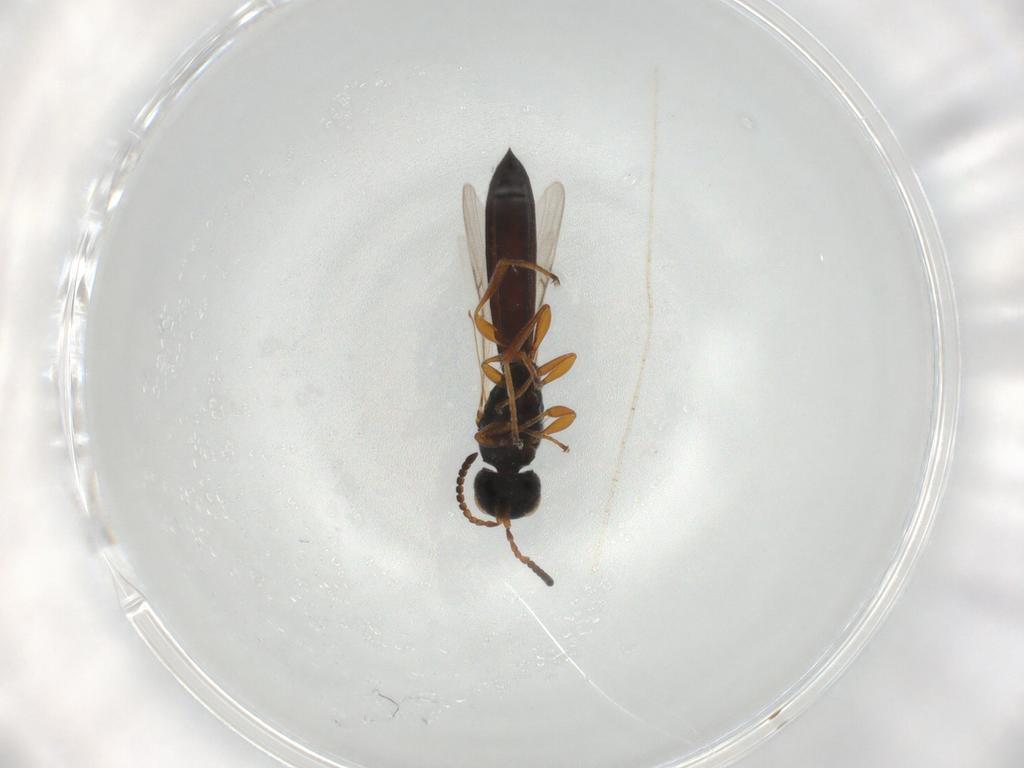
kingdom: Animalia
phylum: Arthropoda
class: Insecta
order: Hymenoptera
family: Scelionidae
